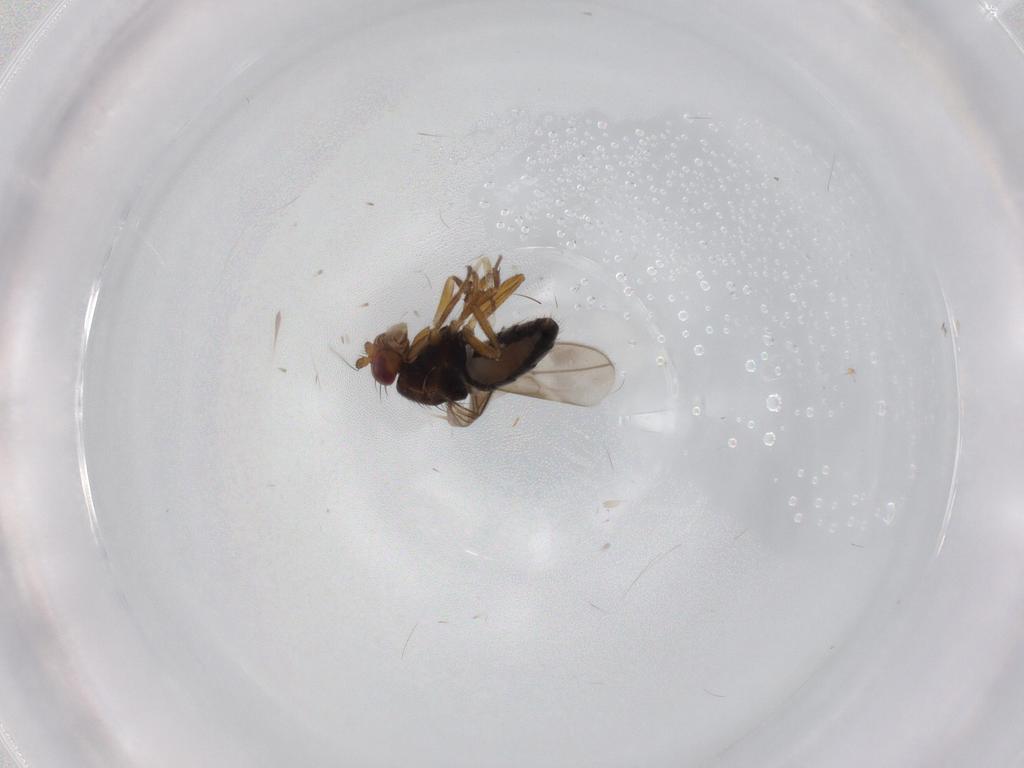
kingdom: Animalia
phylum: Arthropoda
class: Insecta
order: Diptera
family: Sphaeroceridae
